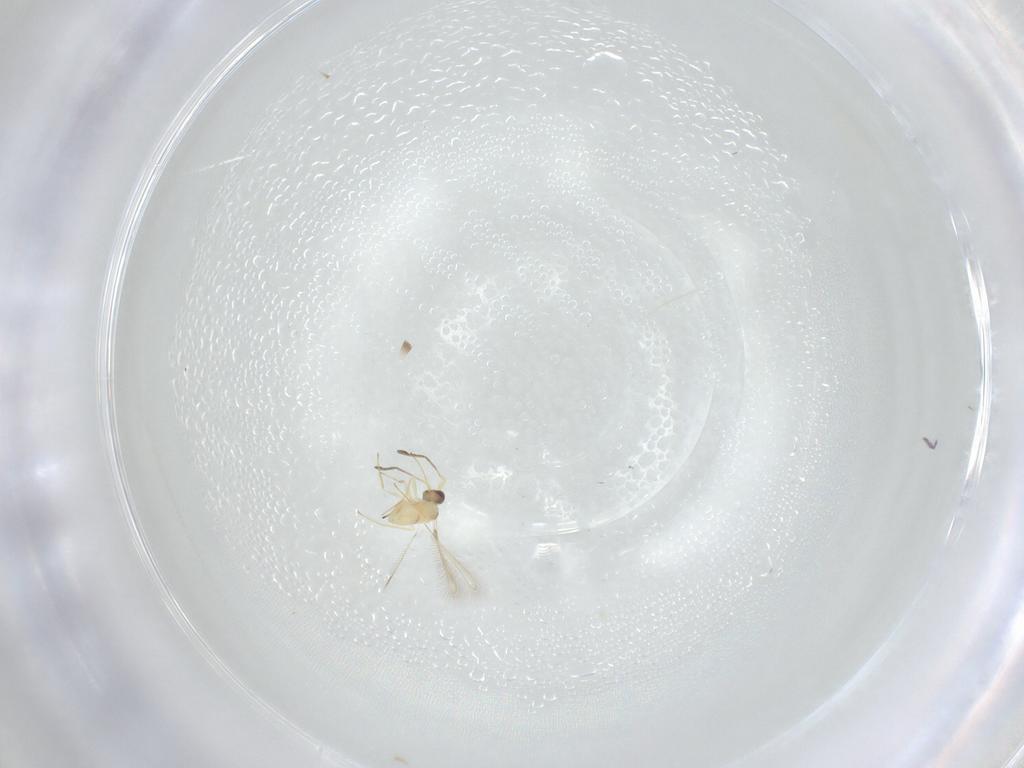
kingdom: Animalia
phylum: Arthropoda
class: Insecta
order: Hymenoptera
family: Mymaridae
